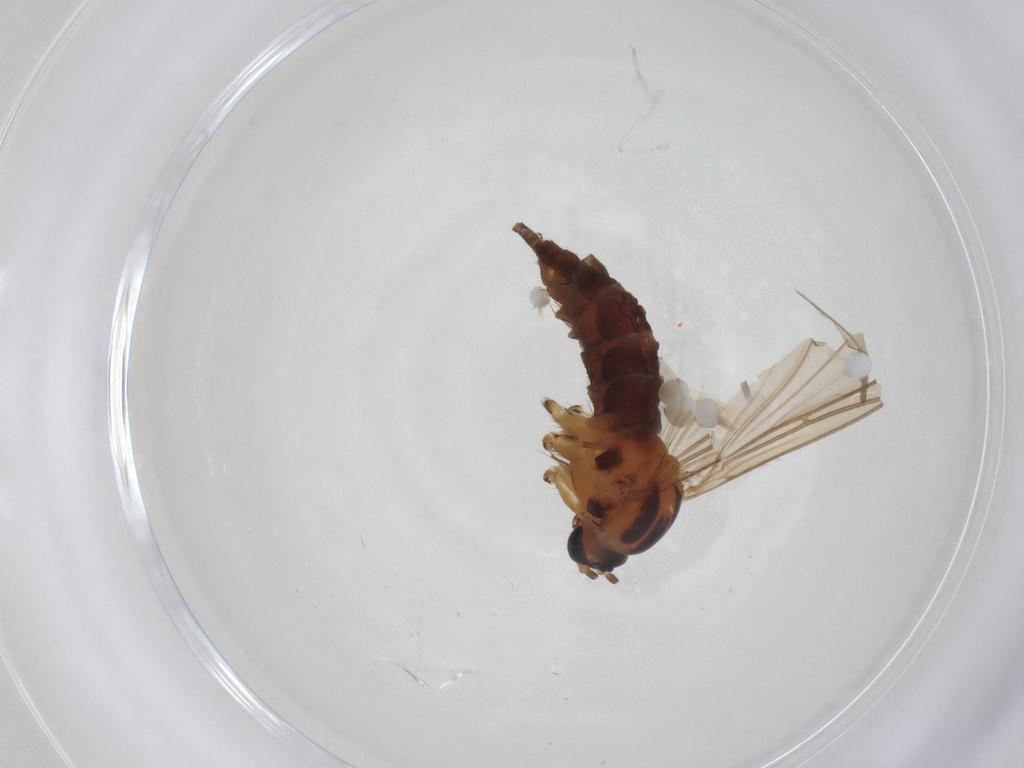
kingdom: Animalia
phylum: Arthropoda
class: Insecta
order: Diptera
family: Sciaridae
